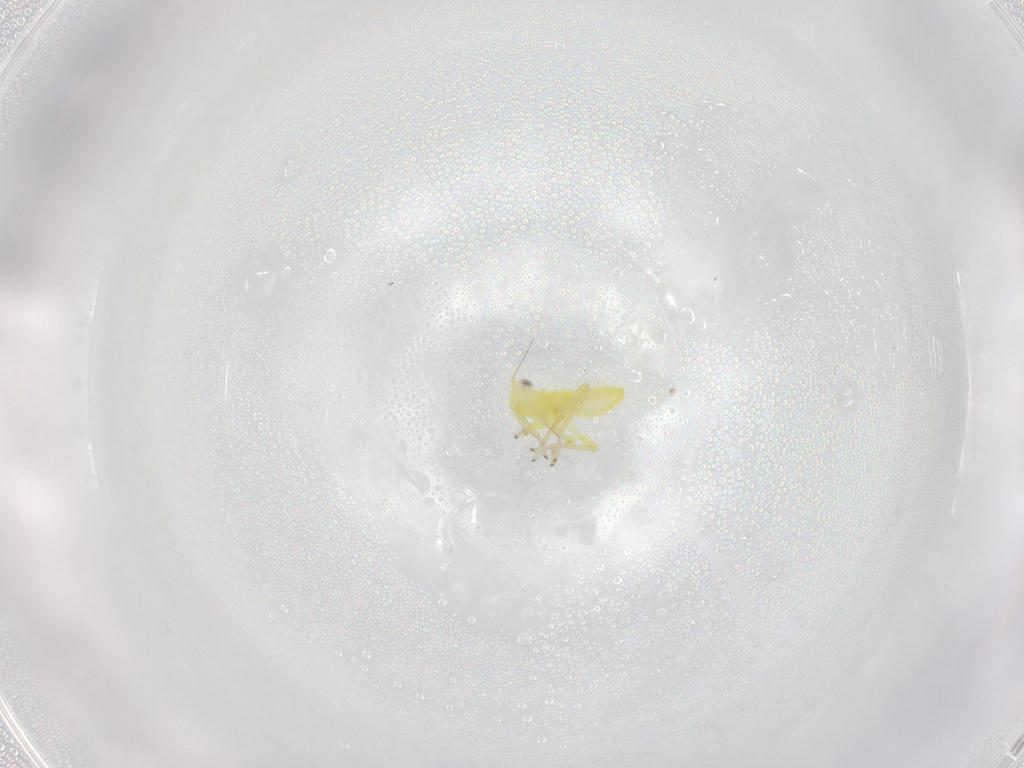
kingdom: Animalia
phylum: Arthropoda
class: Insecta
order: Hemiptera
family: Cicadellidae
